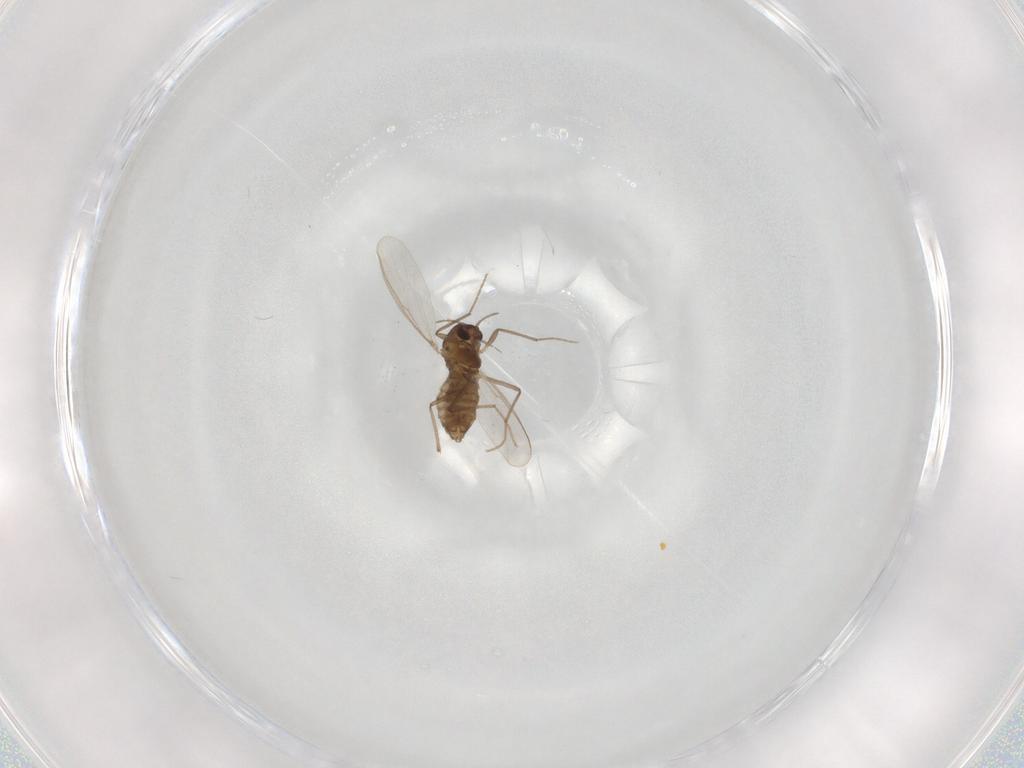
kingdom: Animalia
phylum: Arthropoda
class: Insecta
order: Diptera
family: Chironomidae
